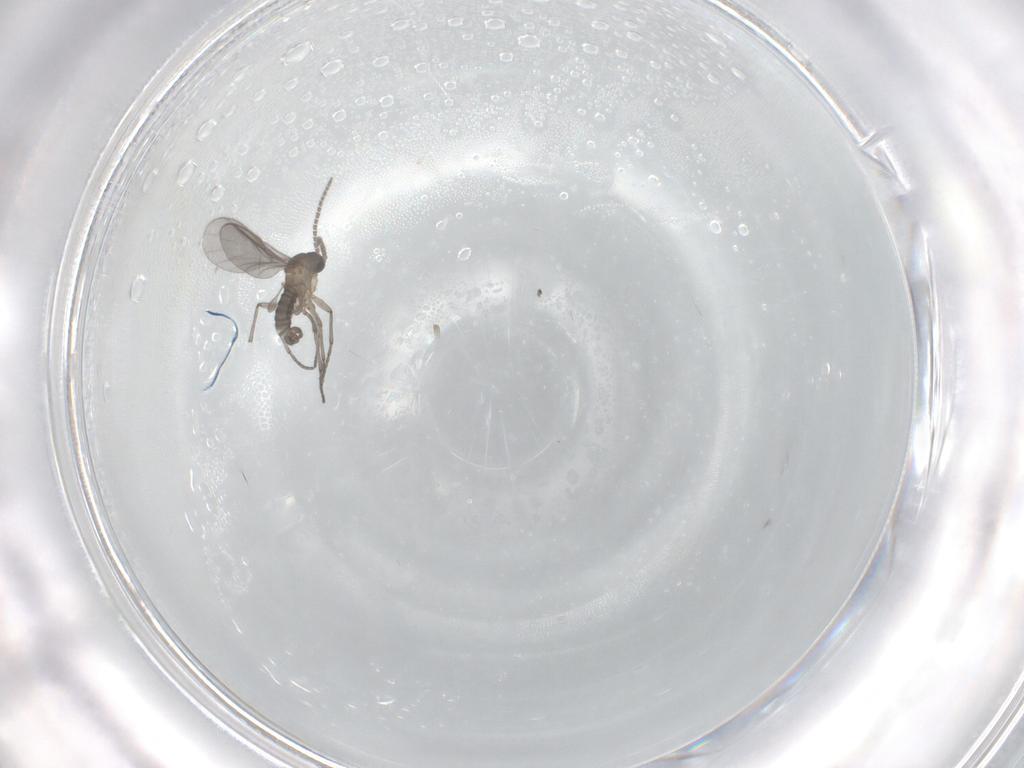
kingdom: Animalia
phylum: Arthropoda
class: Insecta
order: Diptera
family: Sciaridae
